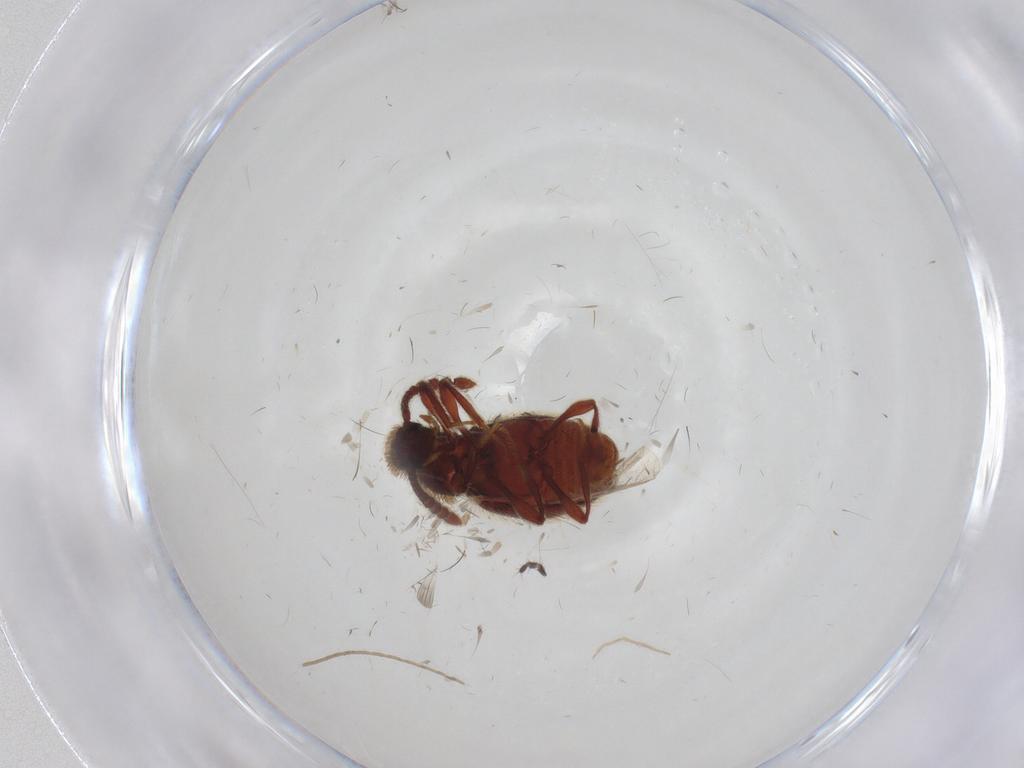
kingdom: Animalia
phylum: Arthropoda
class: Insecta
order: Coleoptera
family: Staphylinidae
